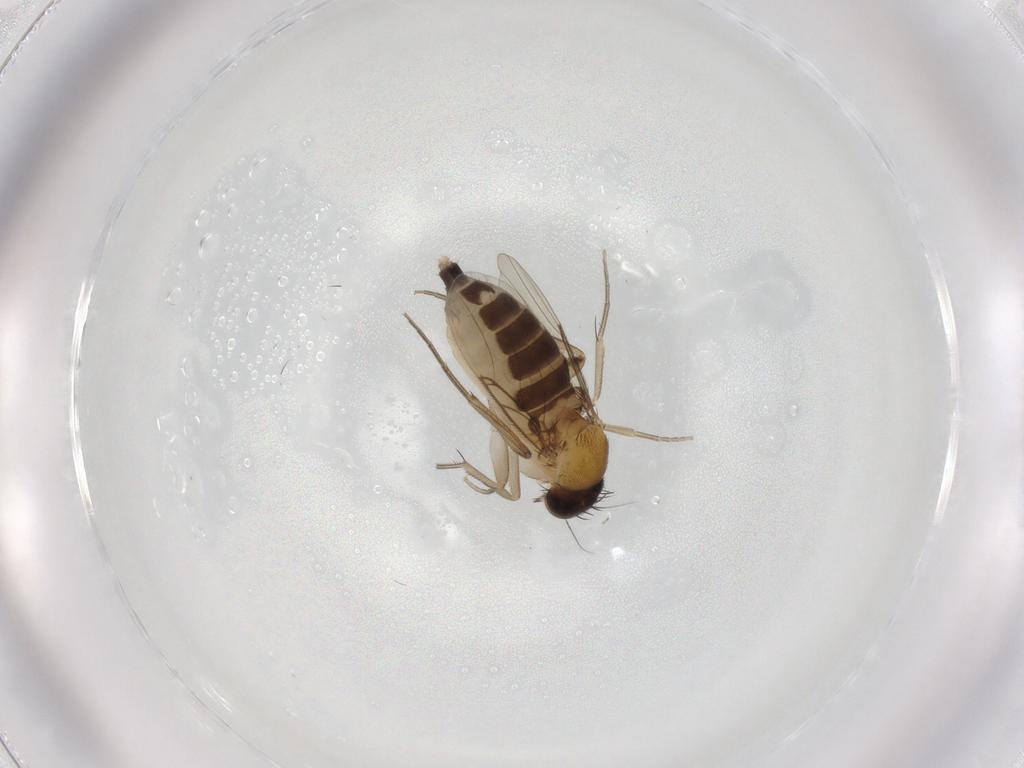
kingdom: Animalia
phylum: Arthropoda
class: Insecta
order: Diptera
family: Phoridae
